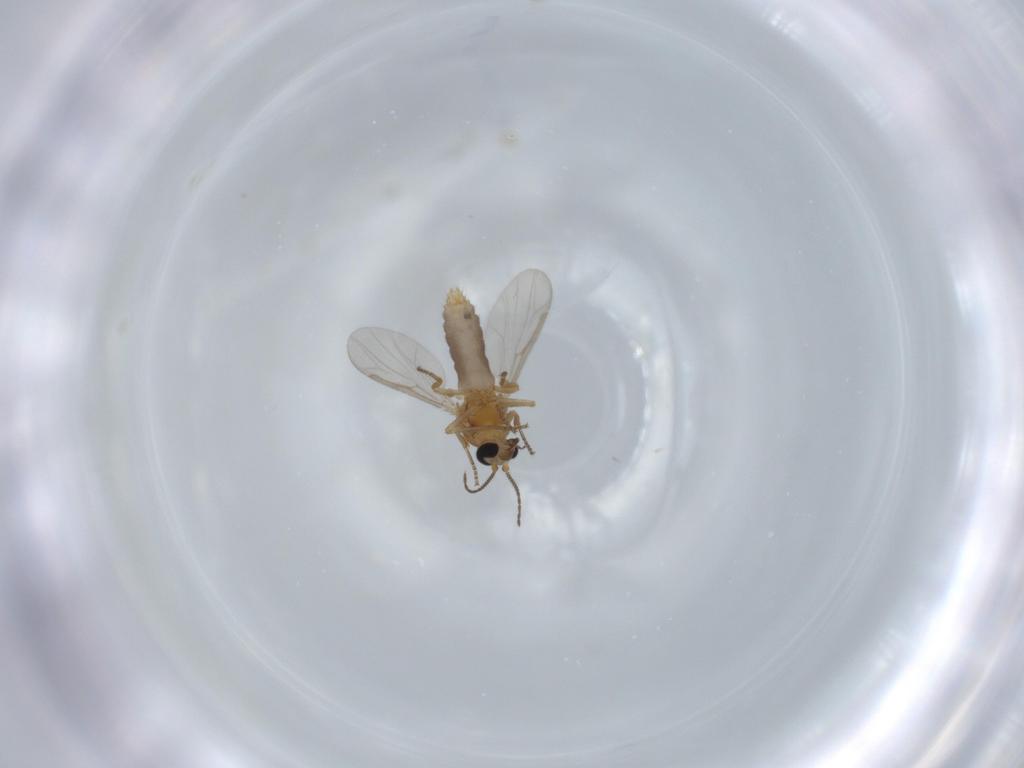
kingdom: Animalia
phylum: Arthropoda
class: Insecta
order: Diptera
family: Ceratopogonidae
